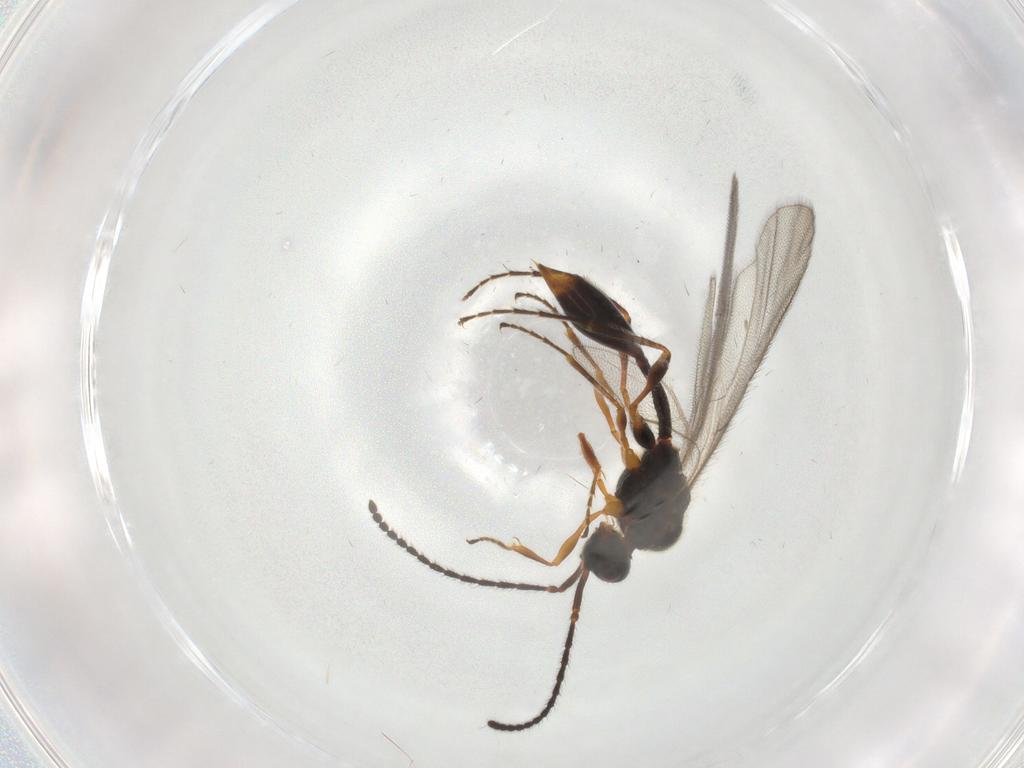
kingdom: Animalia
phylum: Arthropoda
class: Insecta
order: Hymenoptera
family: Diapriidae
